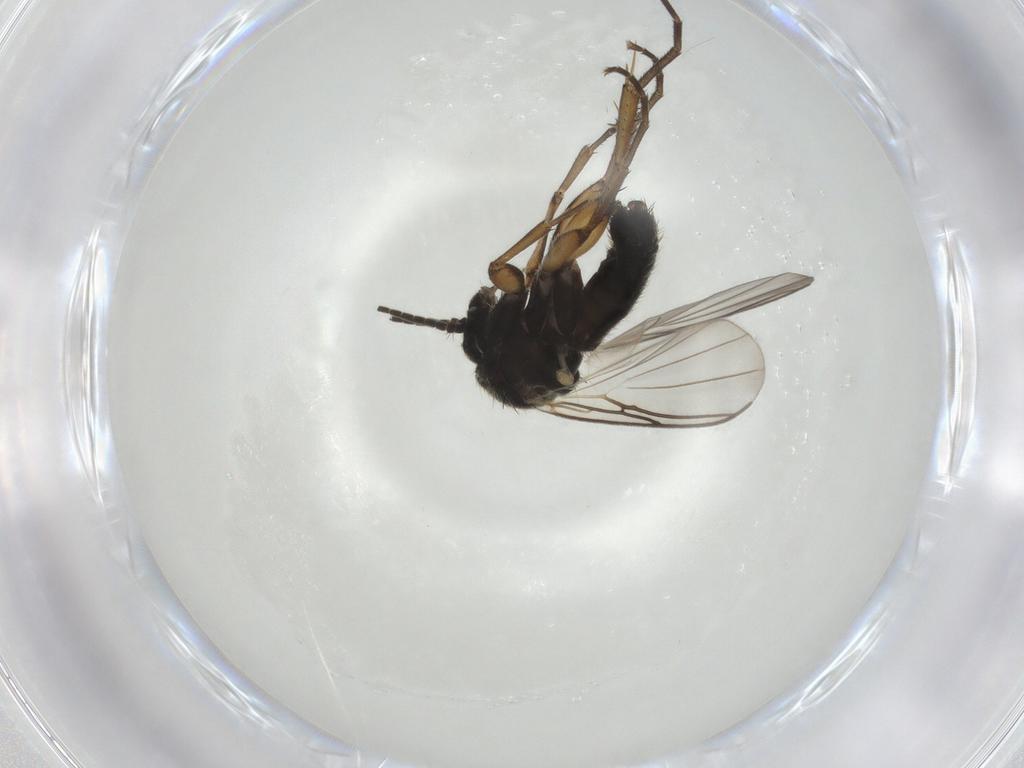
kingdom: Animalia
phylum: Arthropoda
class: Insecta
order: Diptera
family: Mycetophilidae
